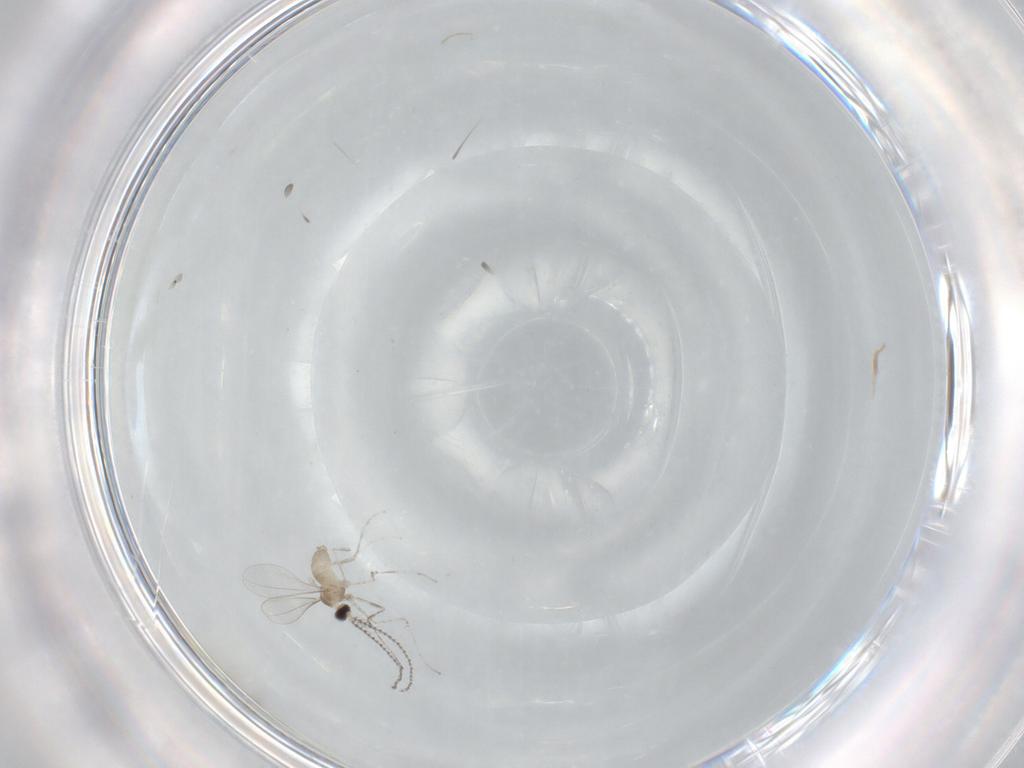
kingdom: Animalia
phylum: Arthropoda
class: Insecta
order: Diptera
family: Cecidomyiidae
